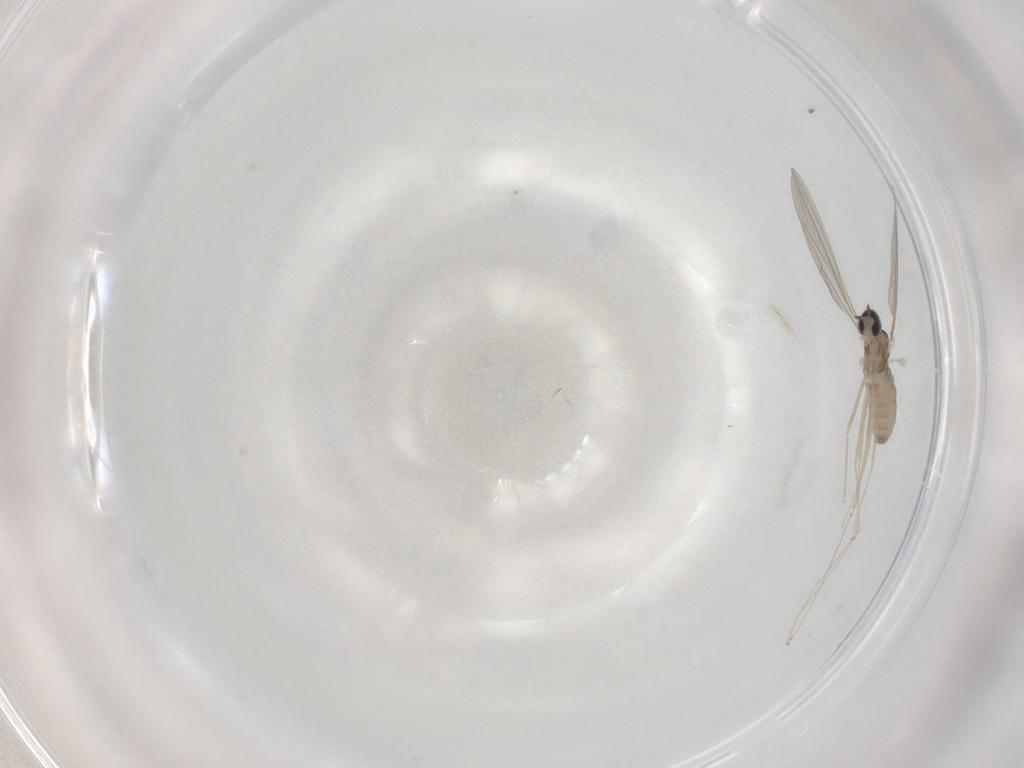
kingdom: Animalia
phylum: Arthropoda
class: Insecta
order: Diptera
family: Cecidomyiidae
